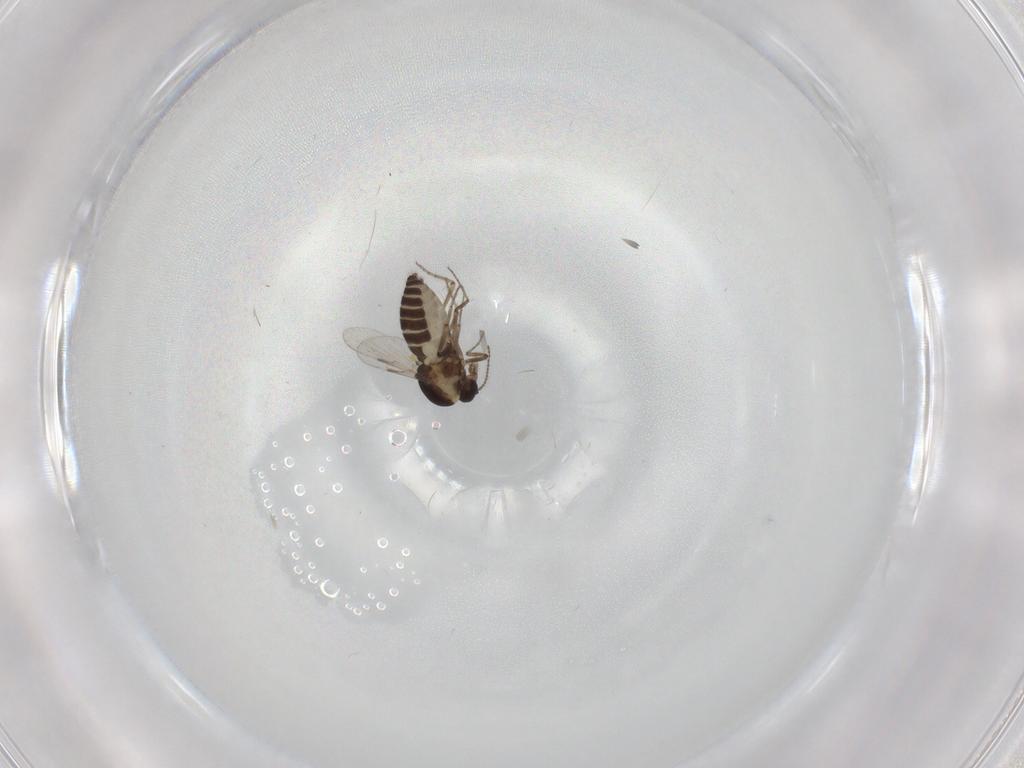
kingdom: Animalia
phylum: Arthropoda
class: Insecta
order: Diptera
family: Ceratopogonidae
